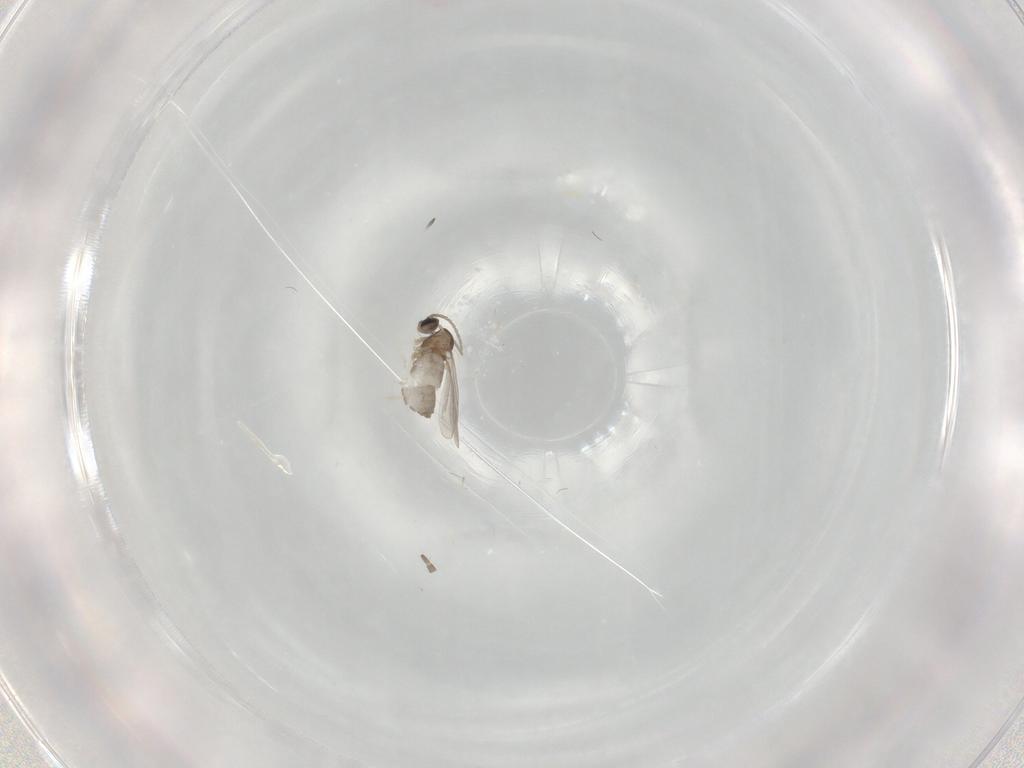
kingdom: Animalia
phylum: Arthropoda
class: Insecta
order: Diptera
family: Cecidomyiidae
